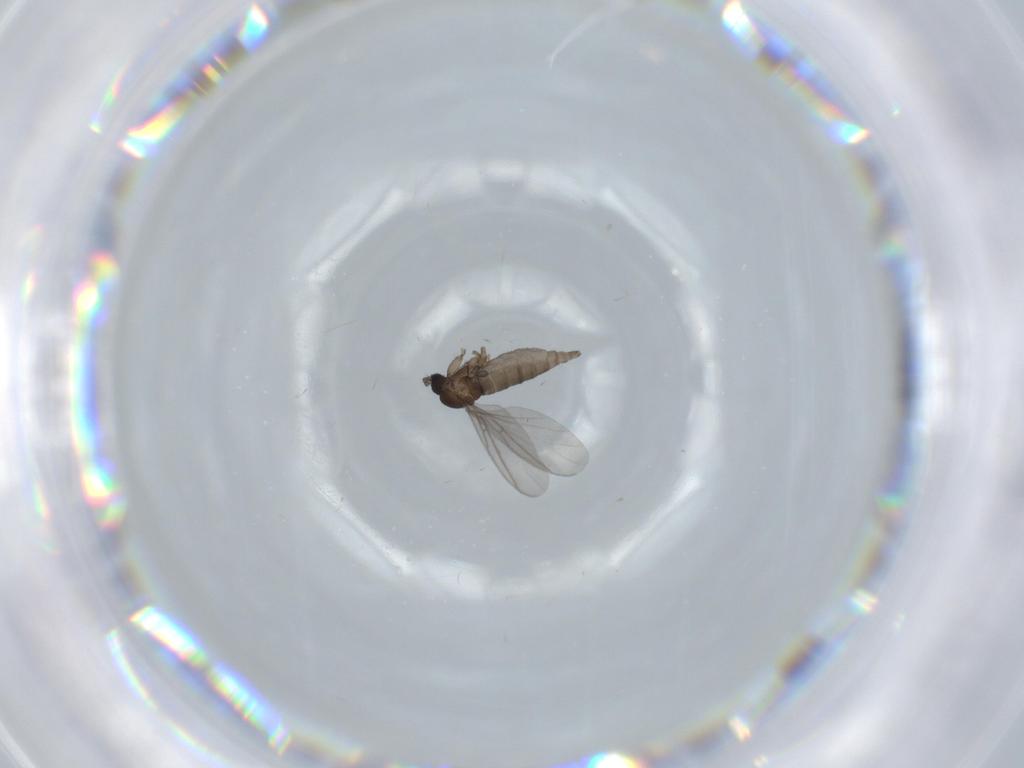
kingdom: Animalia
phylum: Arthropoda
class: Insecta
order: Diptera
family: Sciaridae
